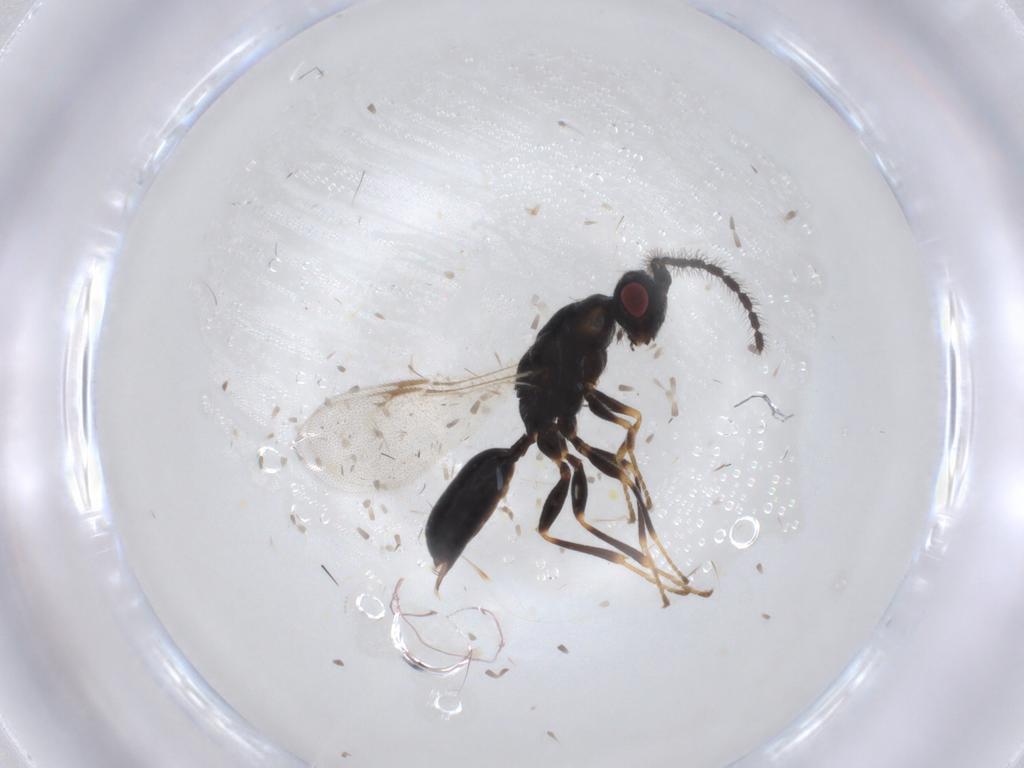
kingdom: Animalia
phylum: Arthropoda
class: Insecta
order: Hymenoptera
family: Eurytomidae
